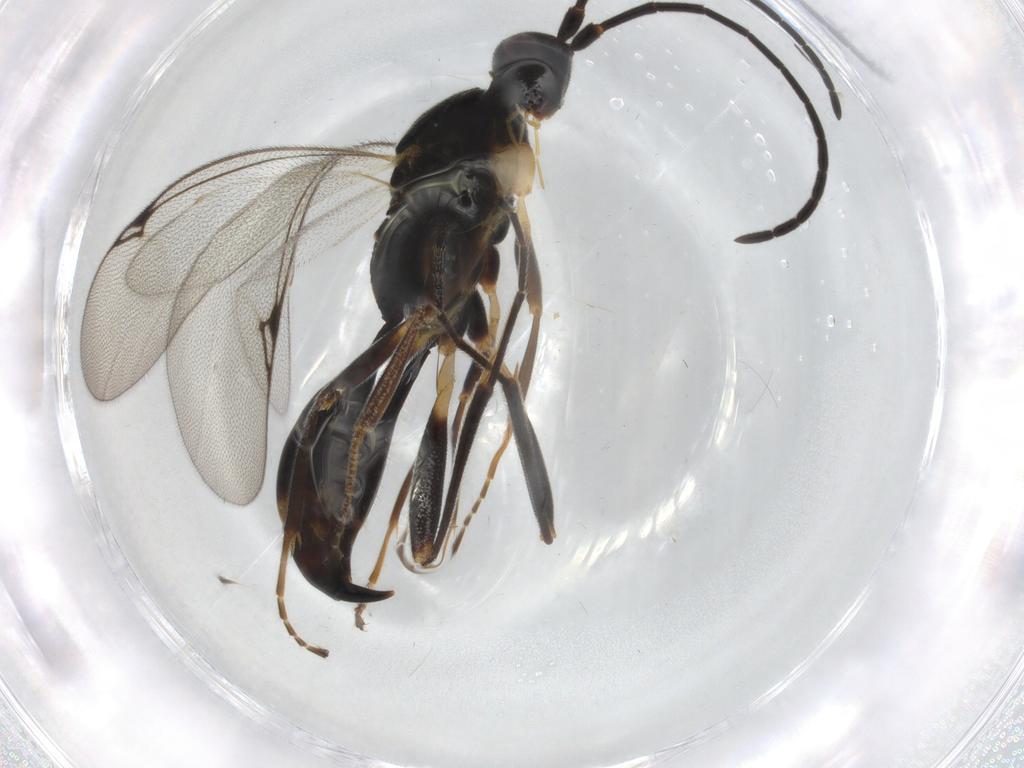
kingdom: Animalia
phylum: Arthropoda
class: Insecta
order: Hymenoptera
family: Proctotrupidae
